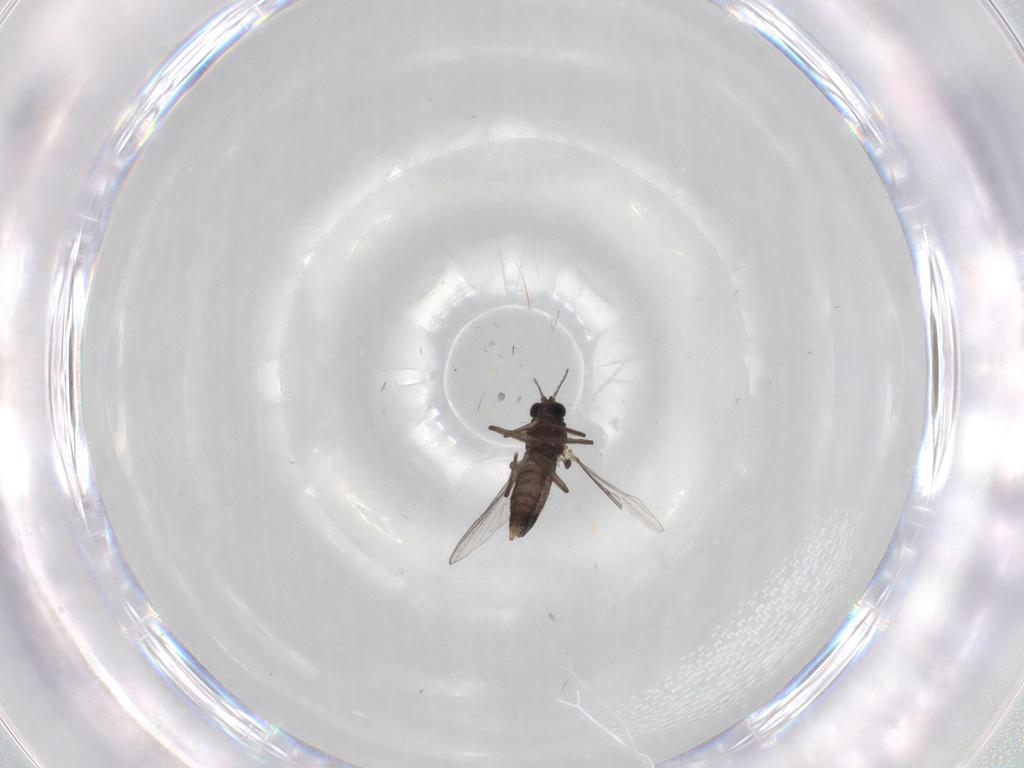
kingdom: Animalia
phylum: Arthropoda
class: Insecta
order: Diptera
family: Chironomidae
